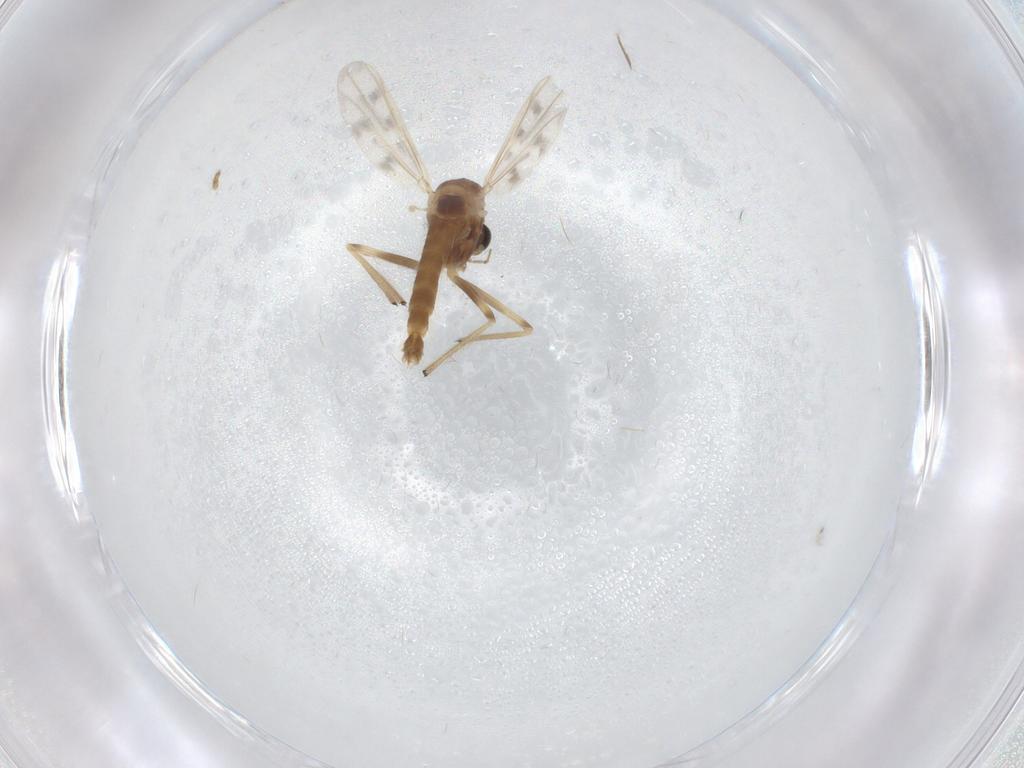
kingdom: Animalia
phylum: Arthropoda
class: Insecta
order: Diptera
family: Chironomidae
